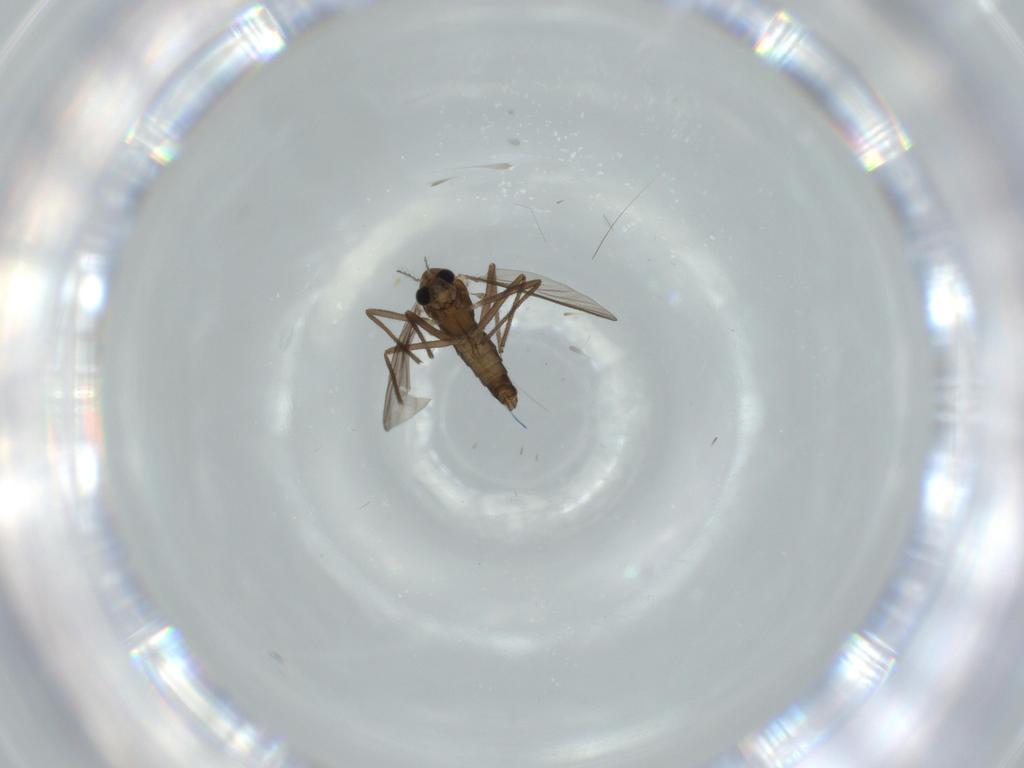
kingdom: Animalia
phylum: Arthropoda
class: Insecta
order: Diptera
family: Chironomidae
